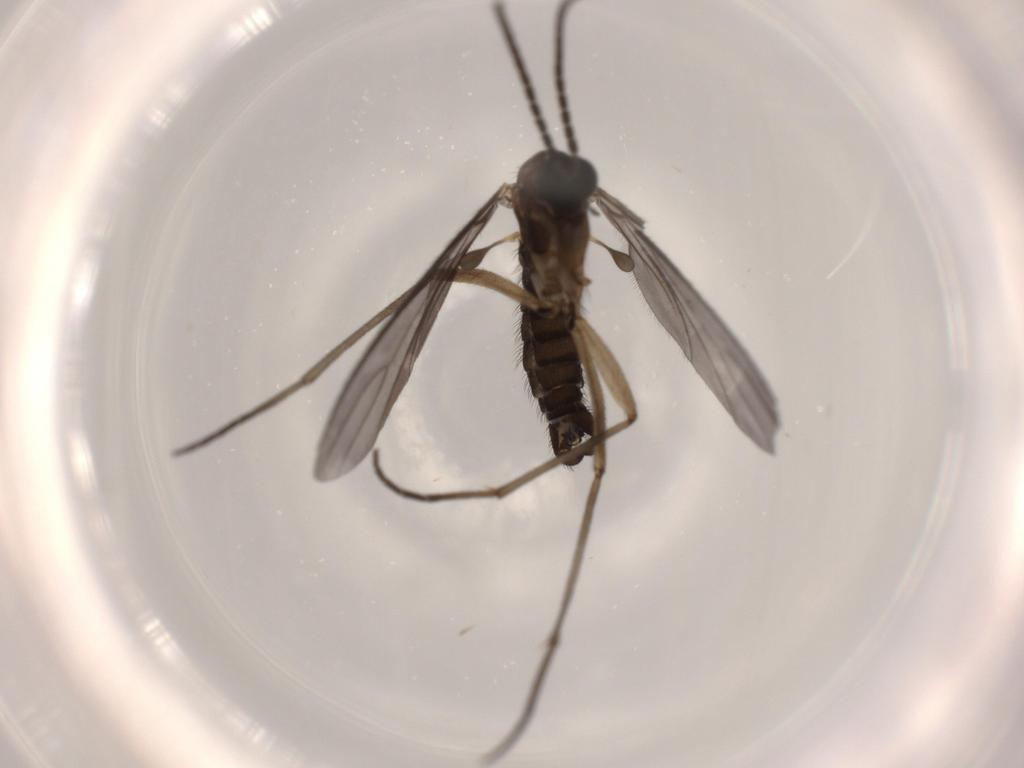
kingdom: Animalia
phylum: Arthropoda
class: Insecta
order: Diptera
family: Sciaridae
